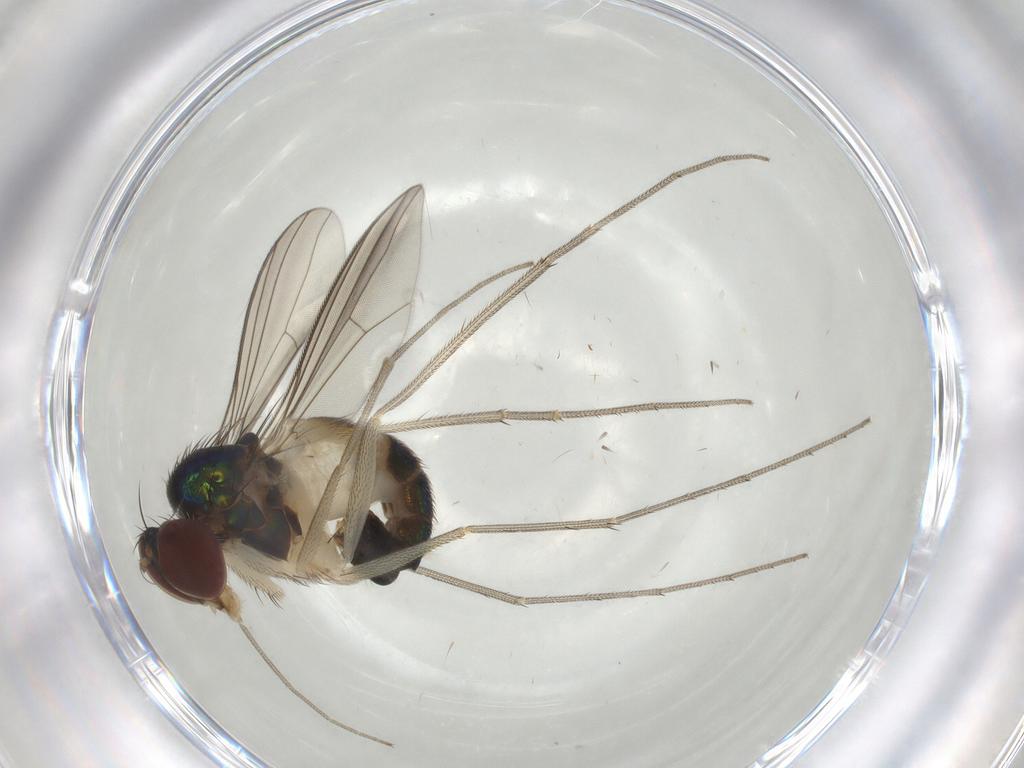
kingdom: Animalia
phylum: Arthropoda
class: Insecta
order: Diptera
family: Dolichopodidae
